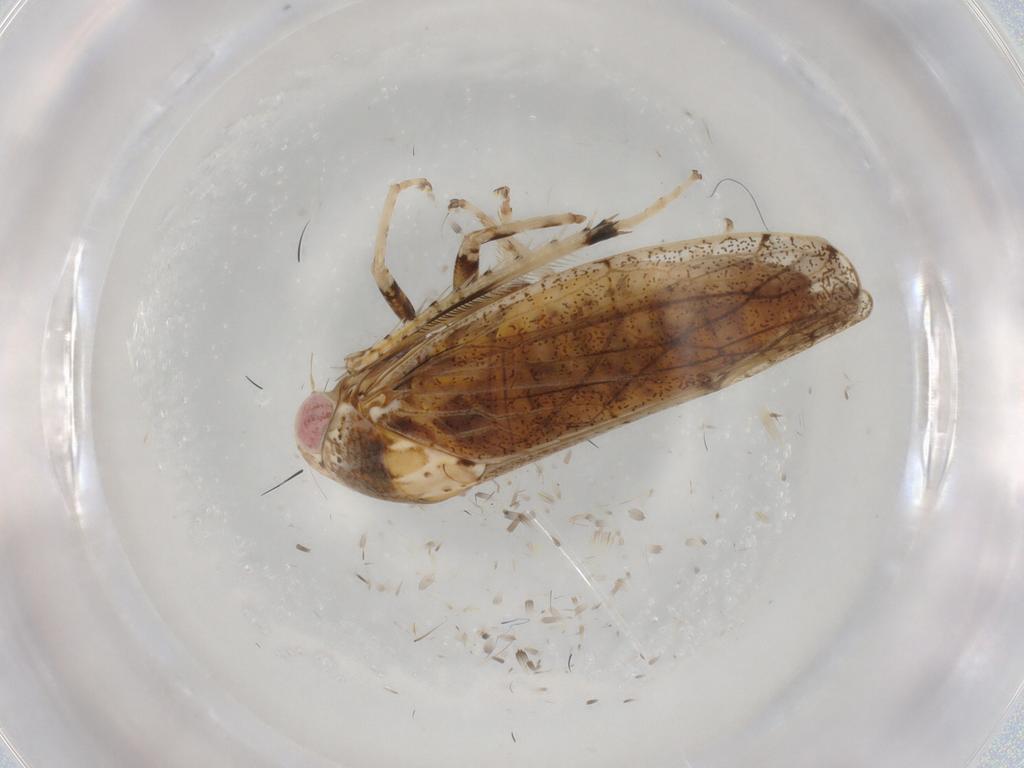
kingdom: Animalia
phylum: Arthropoda
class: Insecta
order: Hemiptera
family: Cicadellidae
